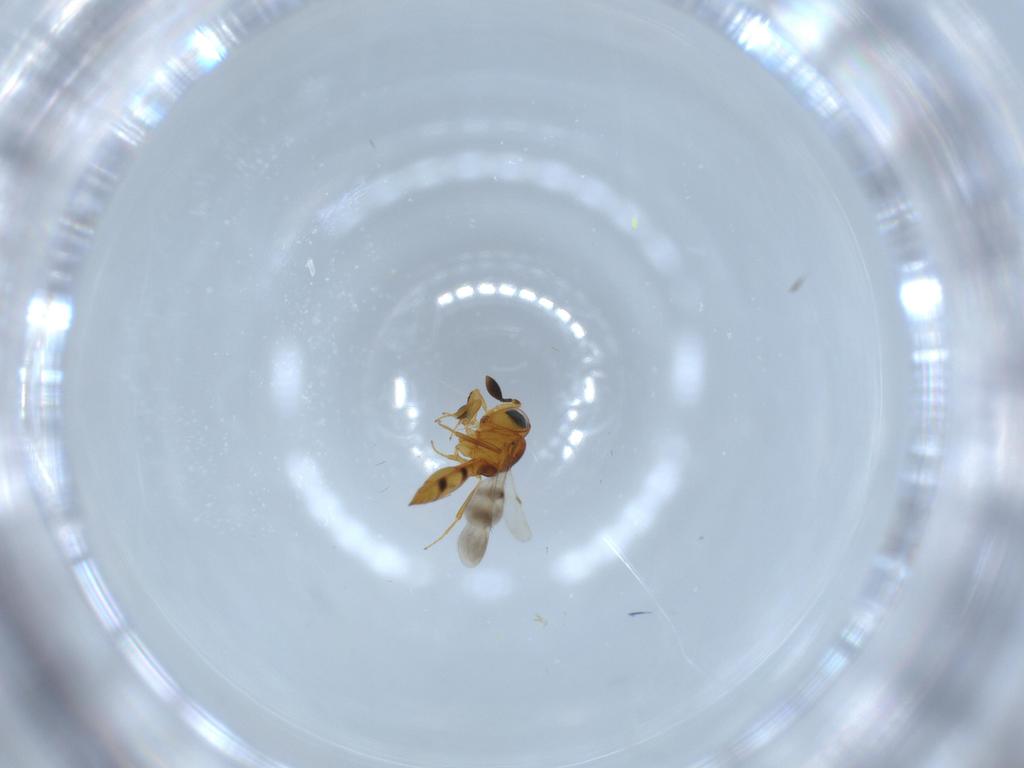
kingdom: Animalia
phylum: Arthropoda
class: Insecta
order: Hymenoptera
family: Scelionidae
